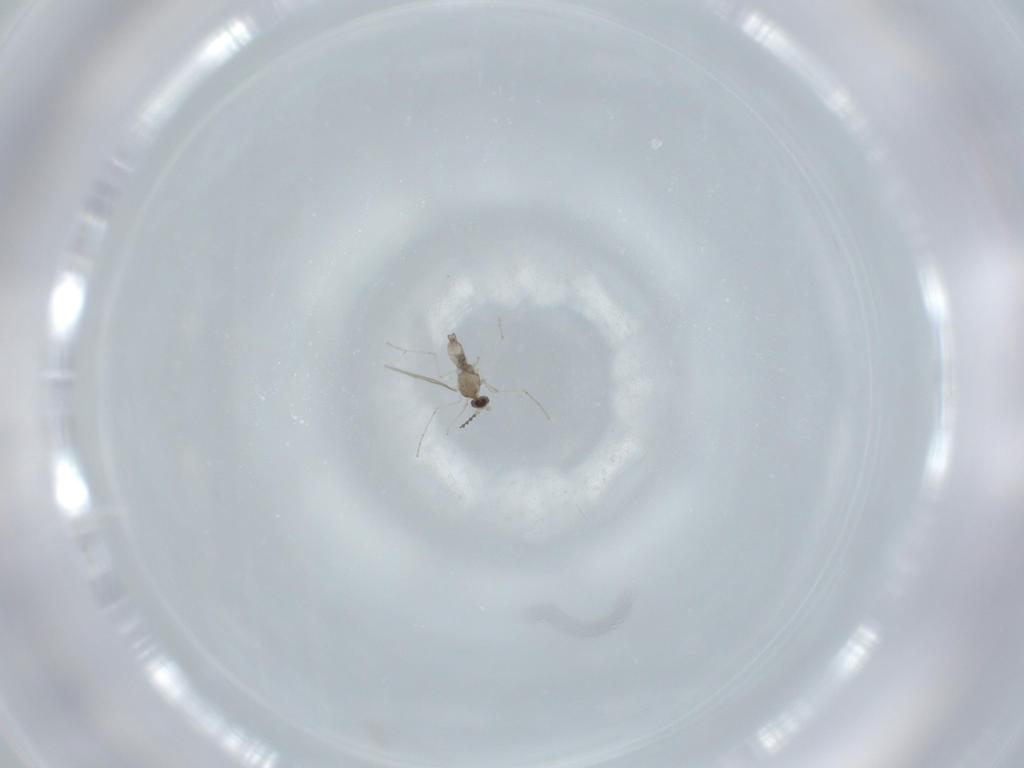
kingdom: Animalia
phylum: Arthropoda
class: Insecta
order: Diptera
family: Cecidomyiidae
